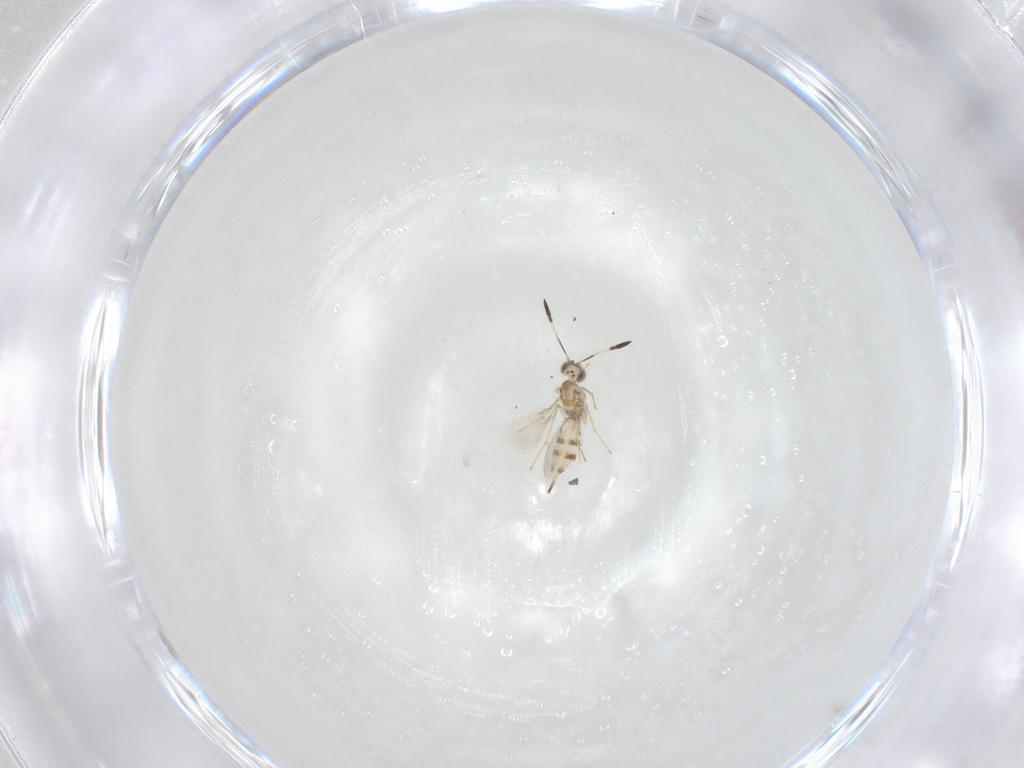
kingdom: Animalia
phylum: Arthropoda
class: Insecta
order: Hymenoptera
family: Mymaridae
